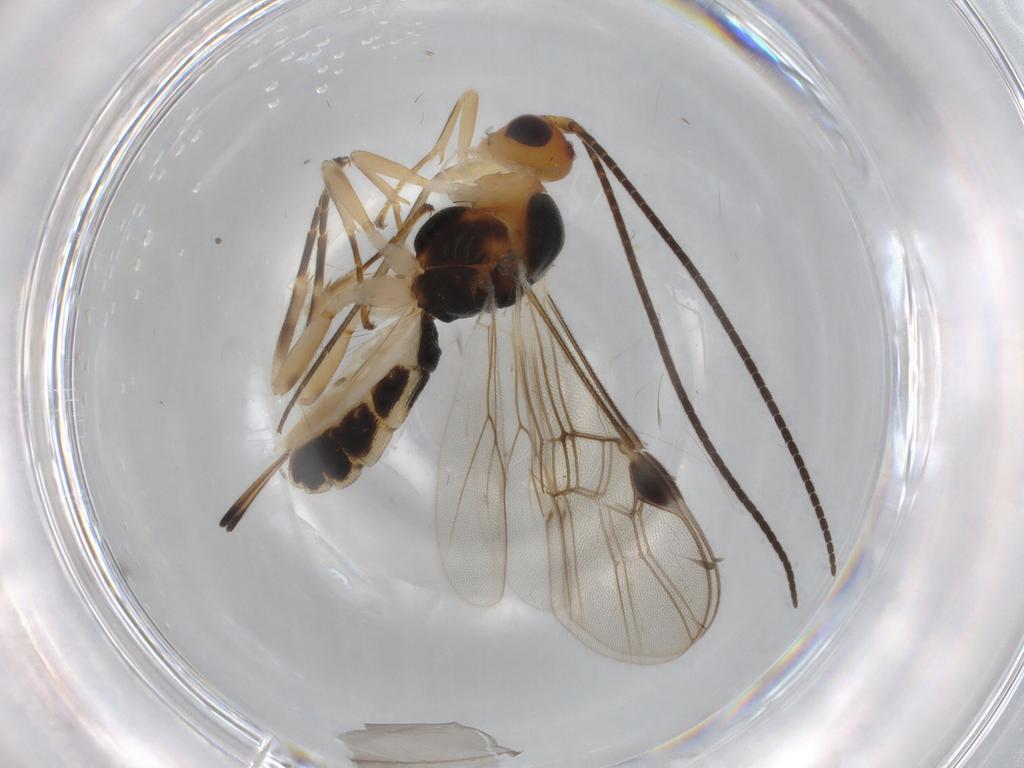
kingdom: Animalia
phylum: Arthropoda
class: Insecta
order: Hymenoptera
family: Braconidae
